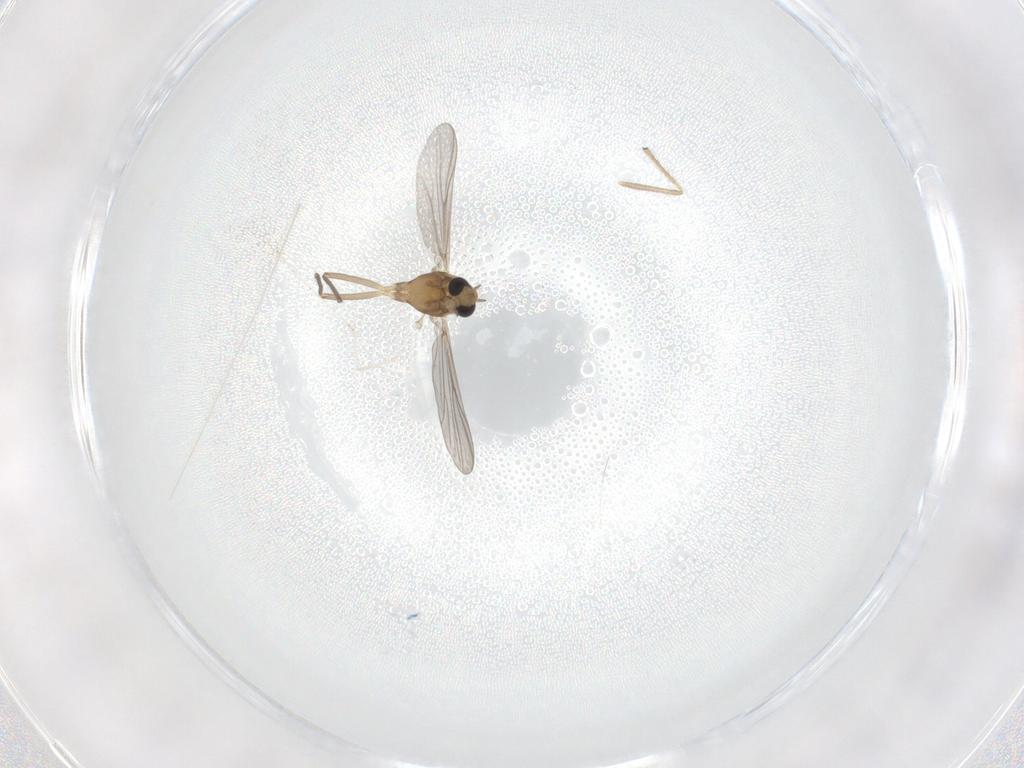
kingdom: Animalia
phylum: Arthropoda
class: Insecta
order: Diptera
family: Chironomidae
